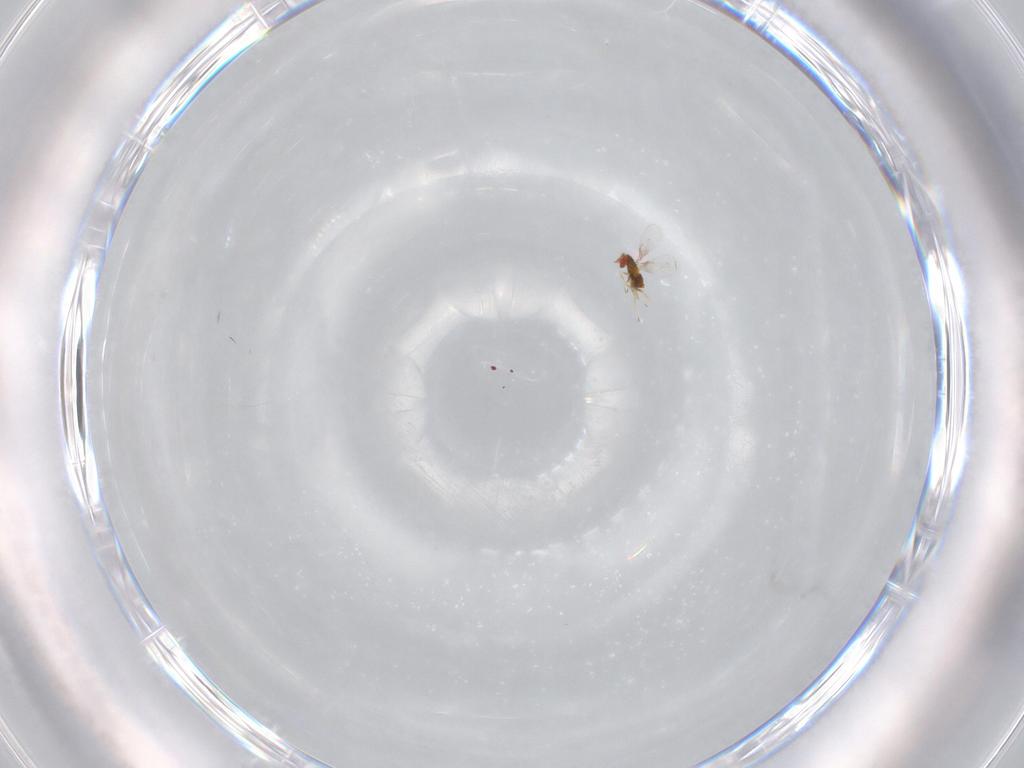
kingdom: Animalia
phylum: Arthropoda
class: Insecta
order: Hymenoptera
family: Trichogrammatidae
